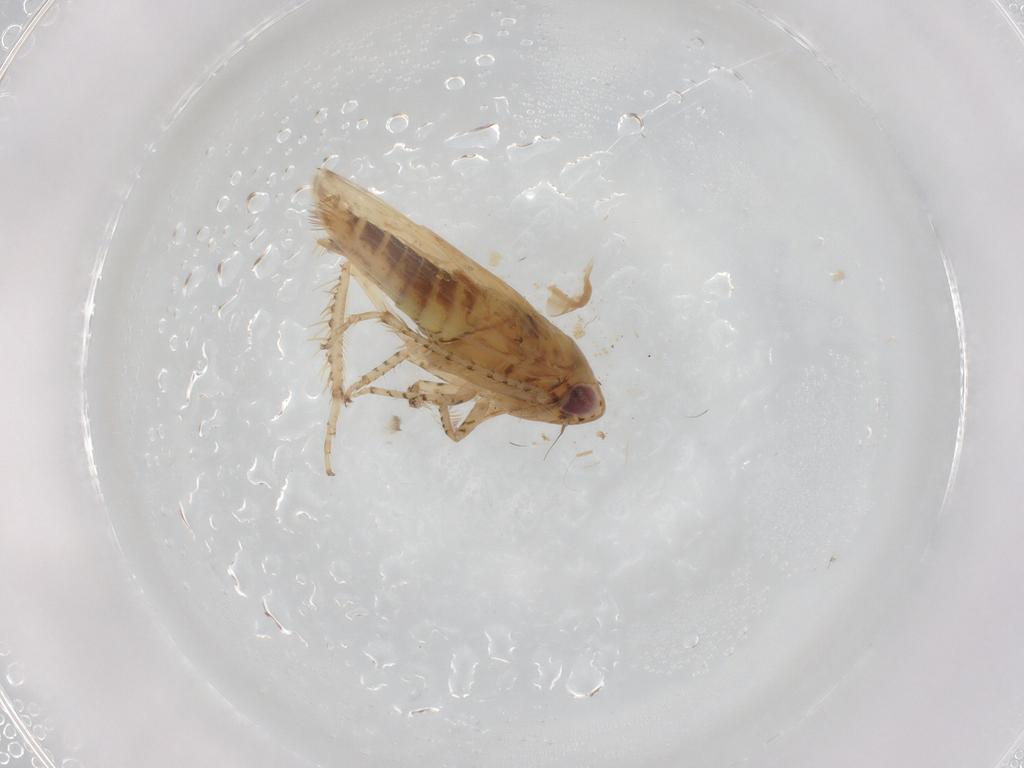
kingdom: Animalia
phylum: Arthropoda
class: Insecta
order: Hemiptera
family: Cicadellidae
